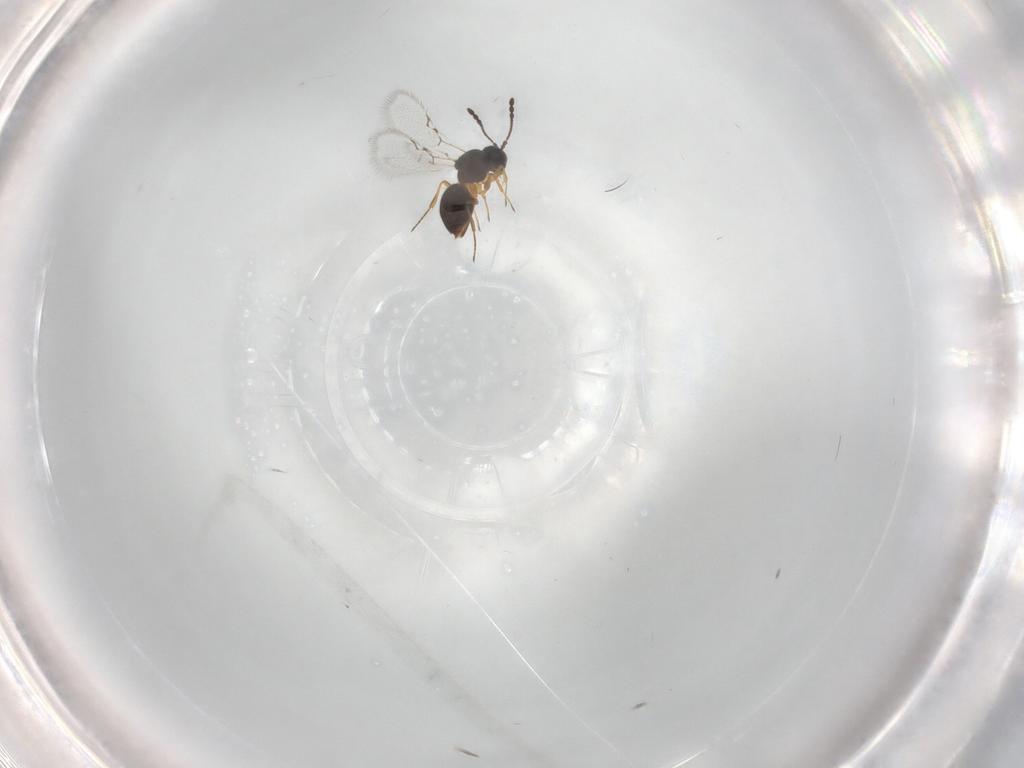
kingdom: Animalia
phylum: Arthropoda
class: Insecta
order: Hymenoptera
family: Figitidae
